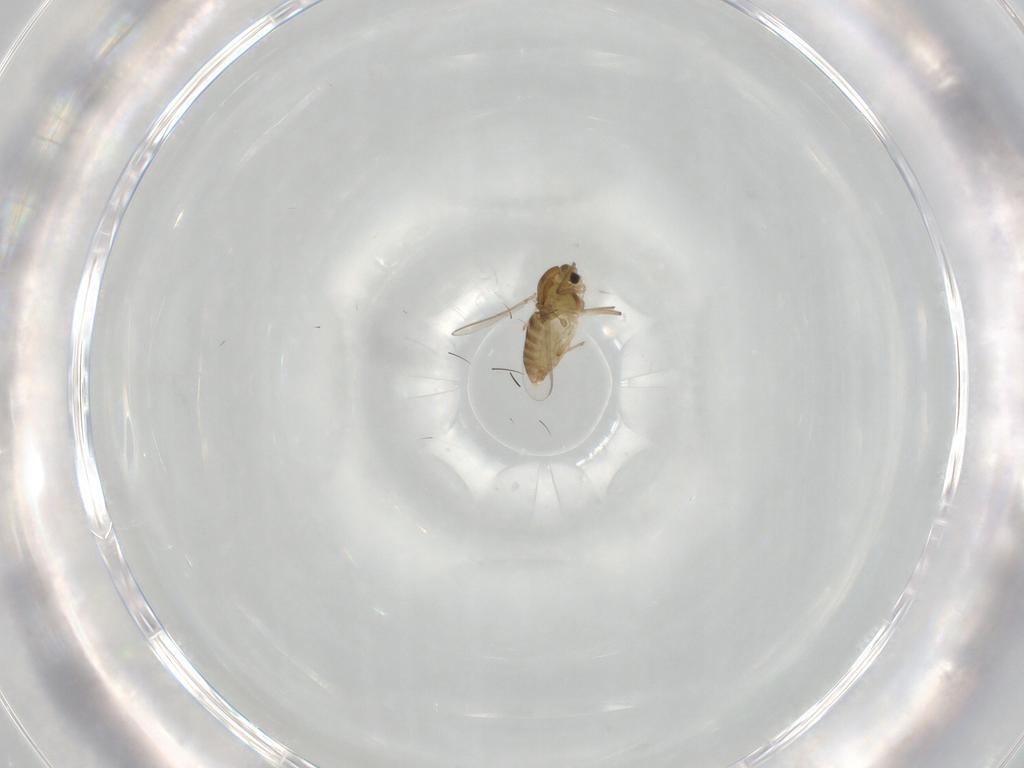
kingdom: Animalia
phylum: Arthropoda
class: Insecta
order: Diptera
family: Chironomidae
